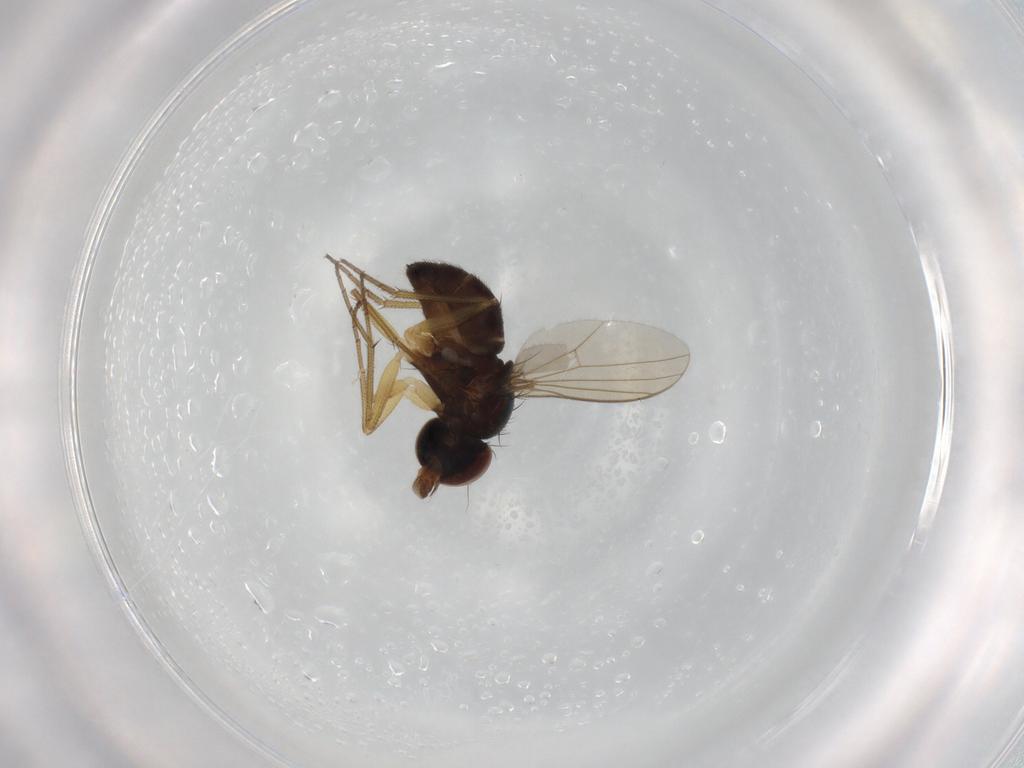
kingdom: Animalia
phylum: Arthropoda
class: Insecta
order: Diptera
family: Dolichopodidae
